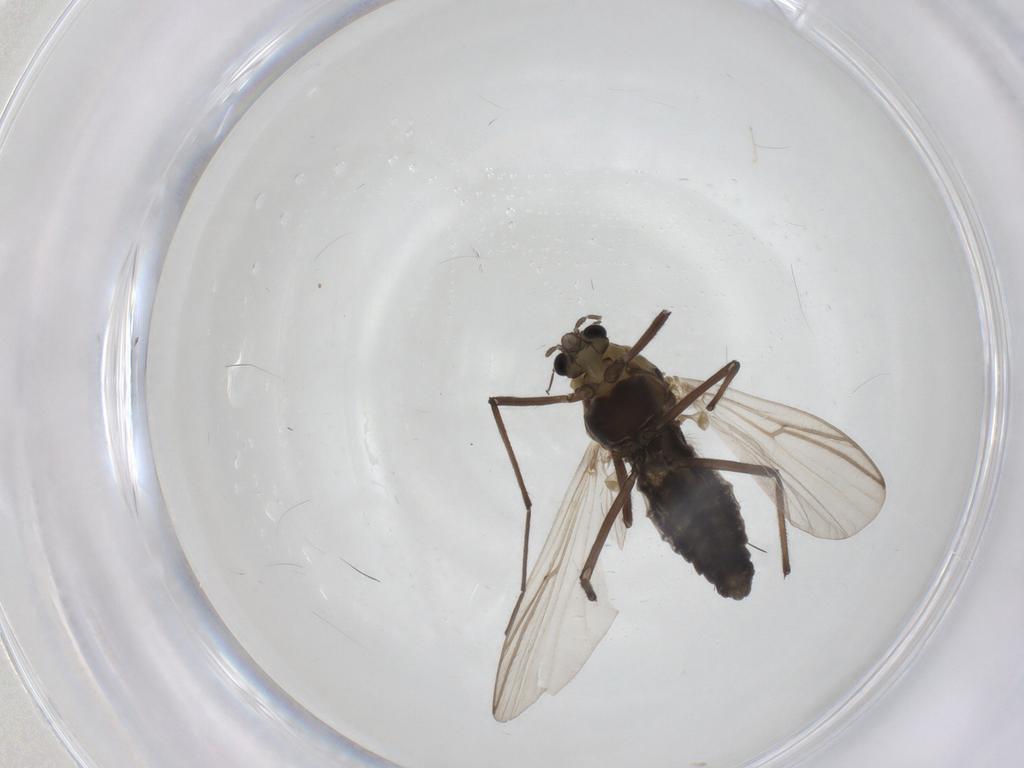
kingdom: Animalia
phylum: Arthropoda
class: Insecta
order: Diptera
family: Chironomidae
